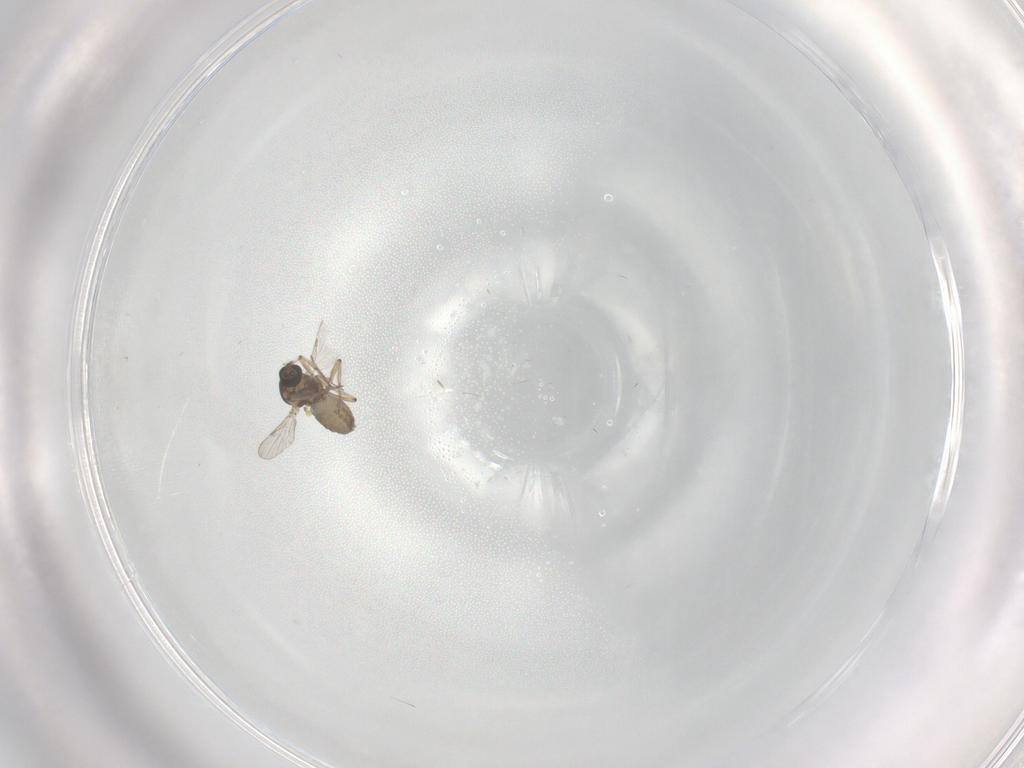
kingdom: Animalia
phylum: Arthropoda
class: Insecta
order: Diptera
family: Ceratopogonidae
